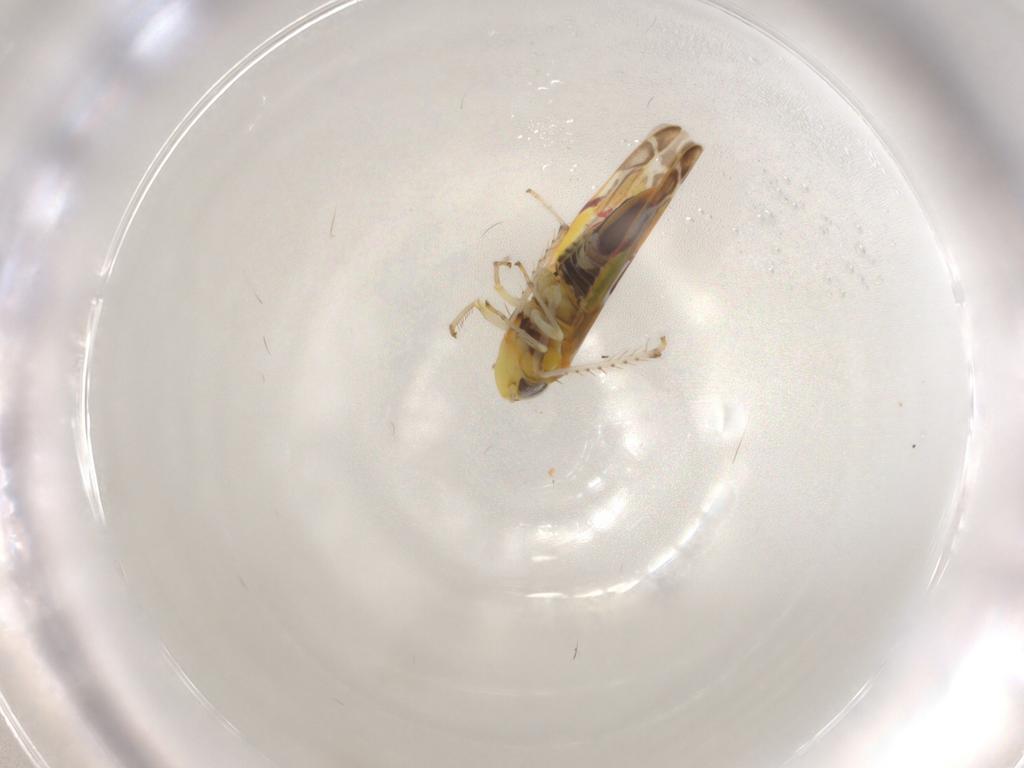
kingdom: Animalia
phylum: Arthropoda
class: Insecta
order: Hemiptera
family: Cicadellidae
